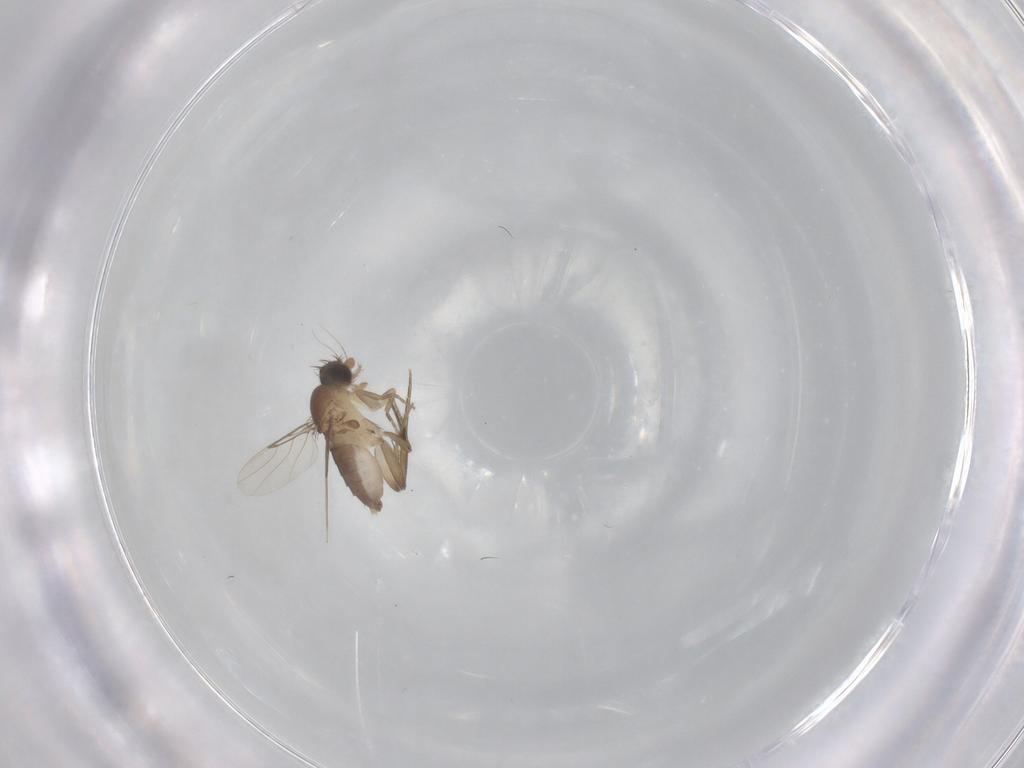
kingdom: Animalia
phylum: Arthropoda
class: Insecta
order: Diptera
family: Phoridae
